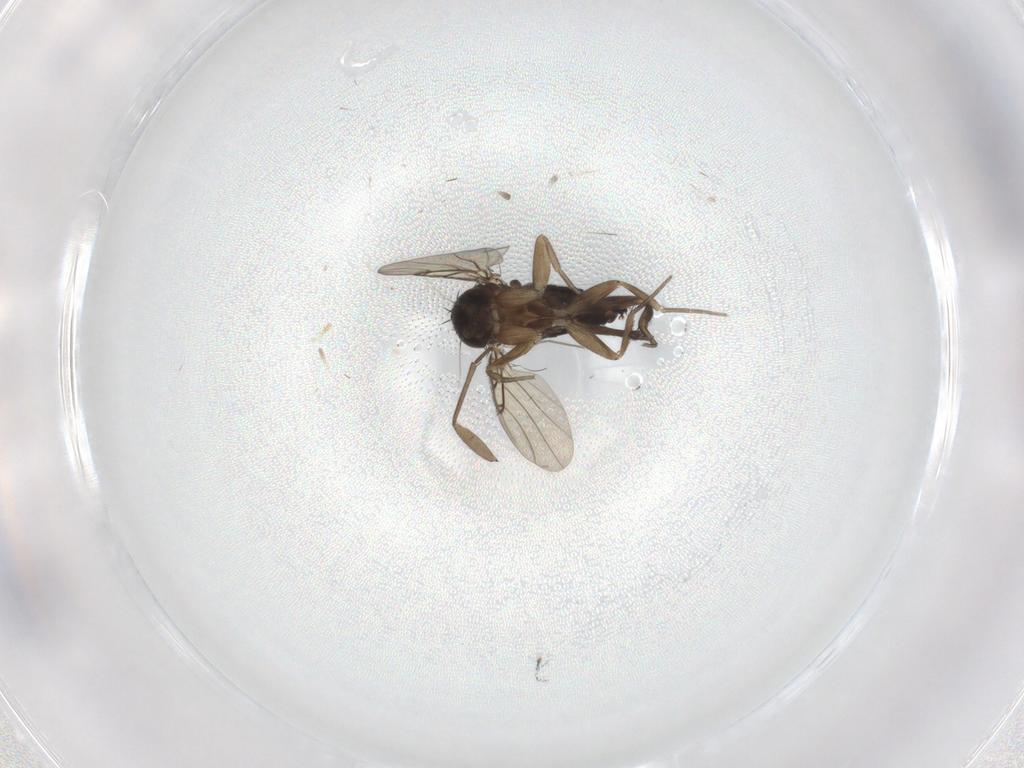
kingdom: Animalia
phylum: Arthropoda
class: Insecta
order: Diptera
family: Phoridae
